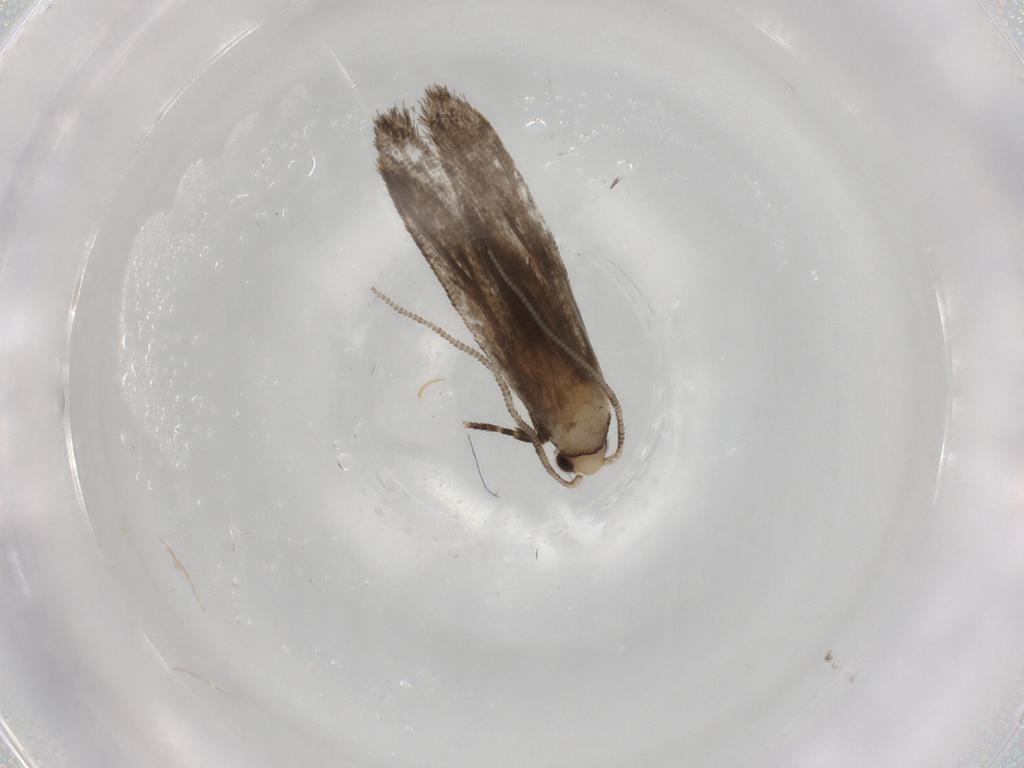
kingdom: Animalia
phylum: Arthropoda
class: Insecta
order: Lepidoptera
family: Tineidae
